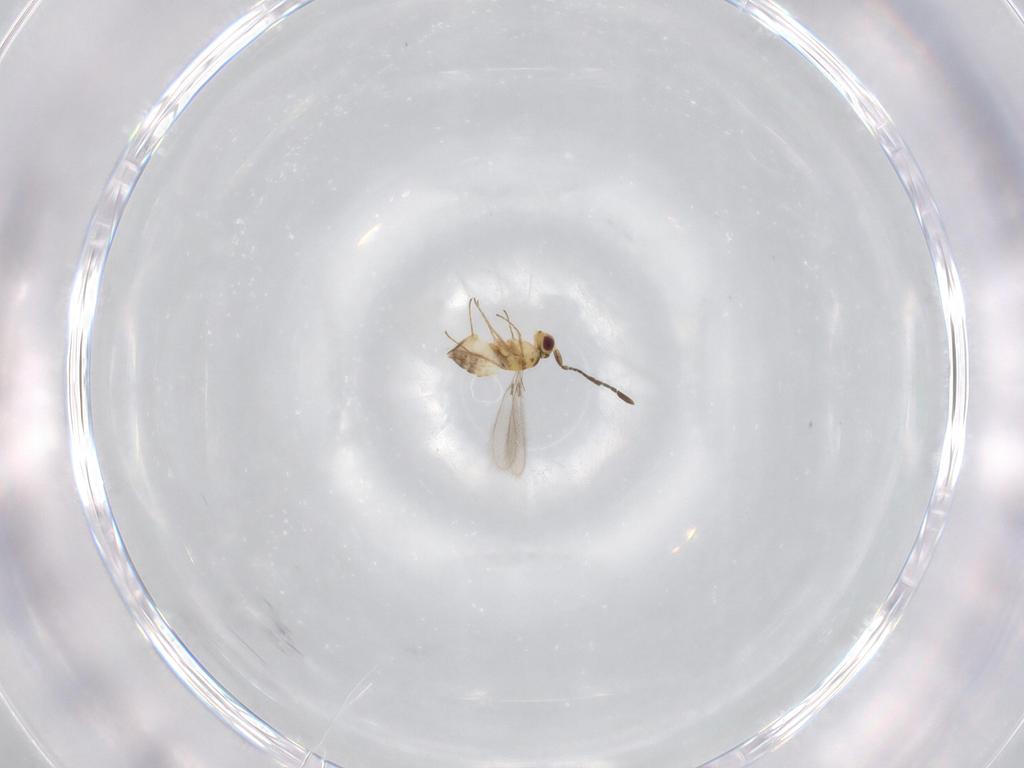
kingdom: Animalia
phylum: Arthropoda
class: Insecta
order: Hymenoptera
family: Mymaridae
